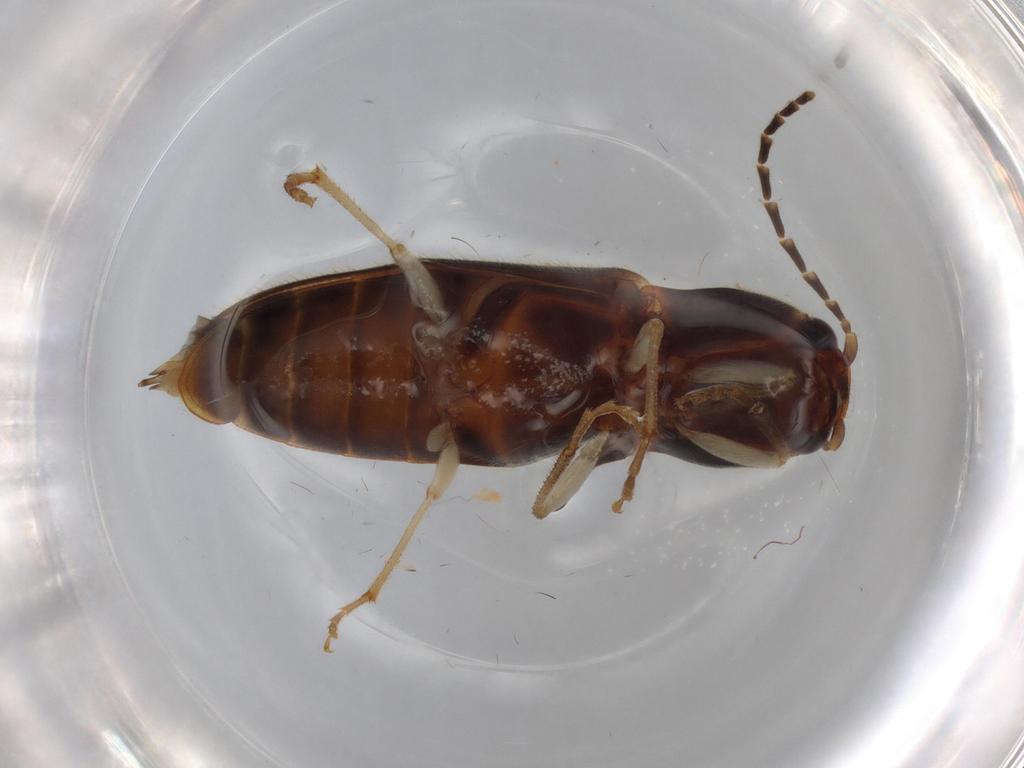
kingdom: Animalia
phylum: Arthropoda
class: Insecta
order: Coleoptera
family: Elateridae
